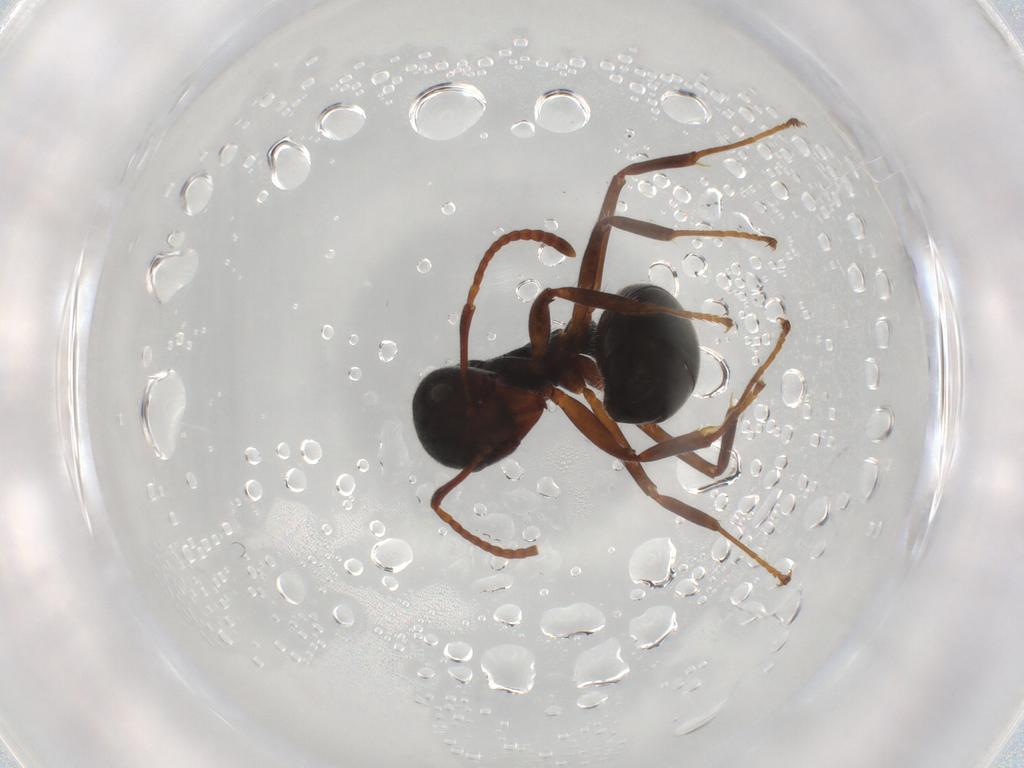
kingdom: Animalia
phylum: Arthropoda
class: Insecta
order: Hymenoptera
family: Formicidae
